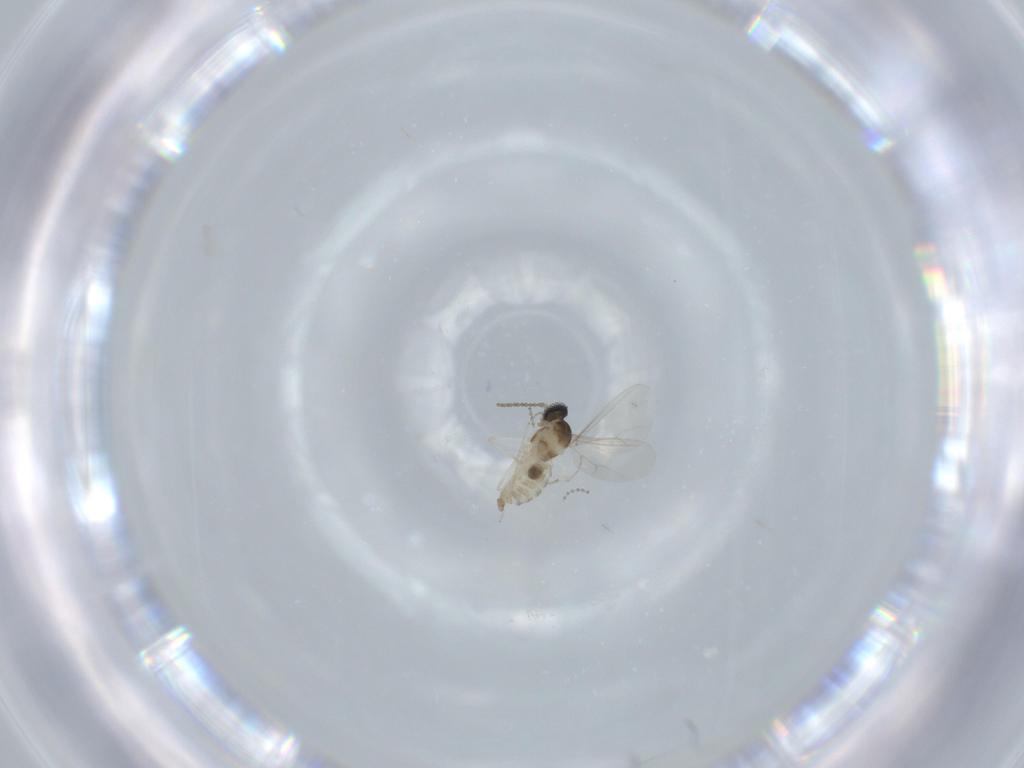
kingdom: Animalia
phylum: Arthropoda
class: Insecta
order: Diptera
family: Cecidomyiidae
